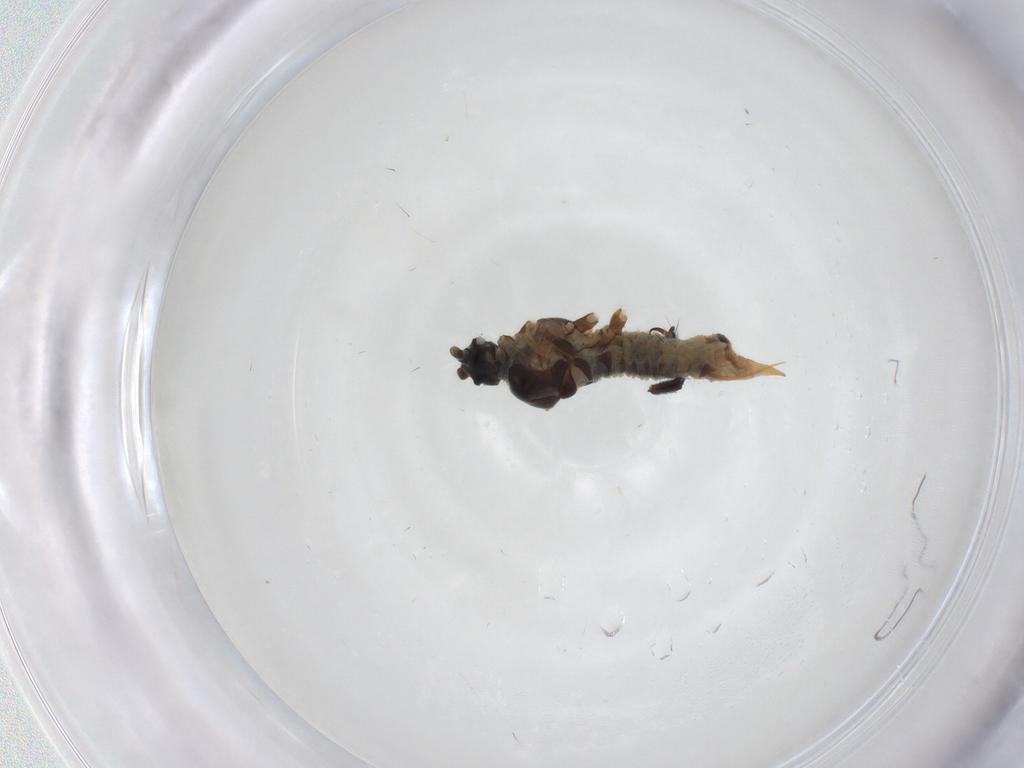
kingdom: Animalia
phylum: Arthropoda
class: Insecta
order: Hemiptera
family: Putoidae
